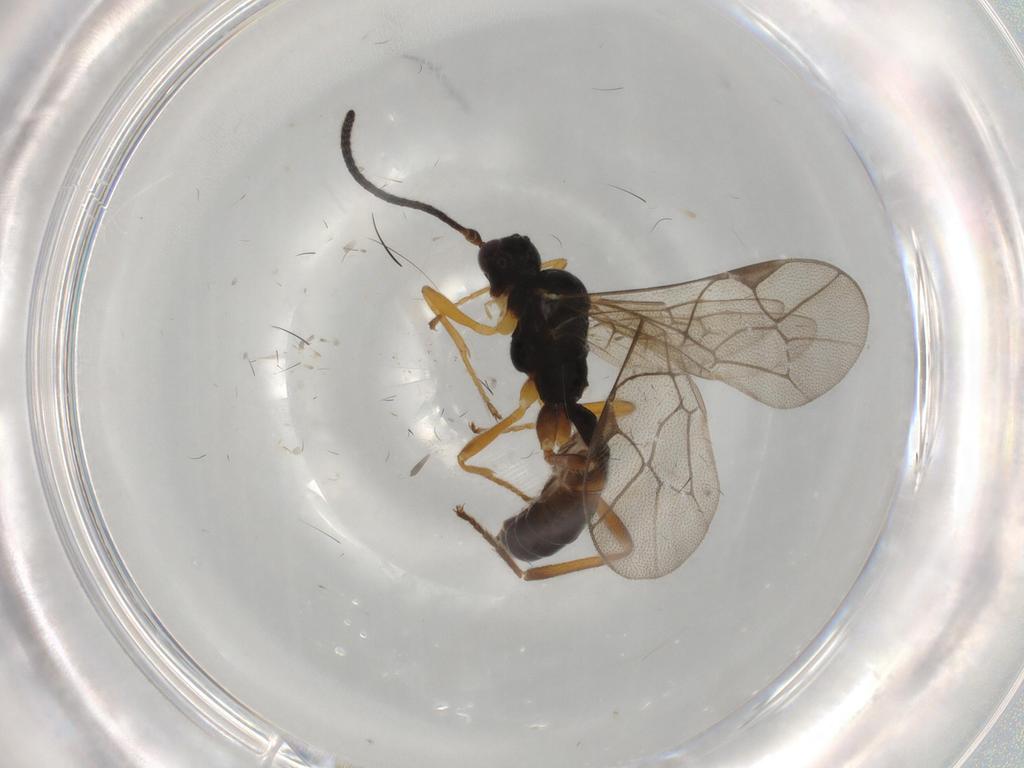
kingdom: Animalia
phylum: Arthropoda
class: Insecta
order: Hymenoptera
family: Ichneumonidae
